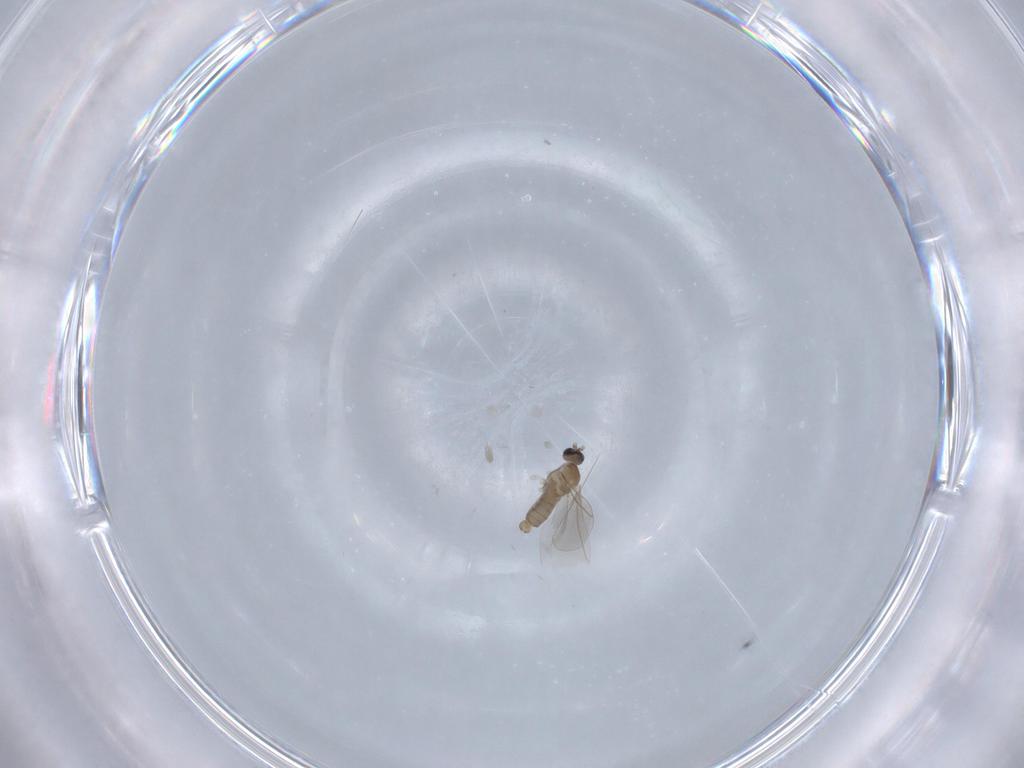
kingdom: Animalia
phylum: Arthropoda
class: Insecta
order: Diptera
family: Cecidomyiidae
